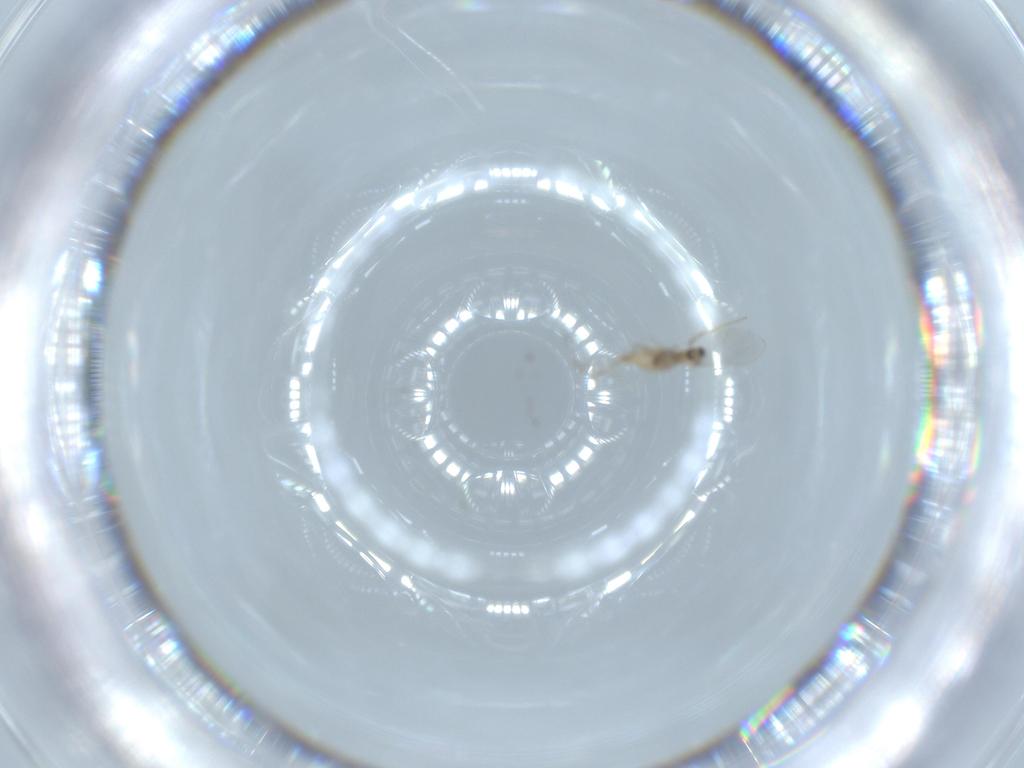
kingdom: Animalia
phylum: Arthropoda
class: Insecta
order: Diptera
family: Cecidomyiidae
